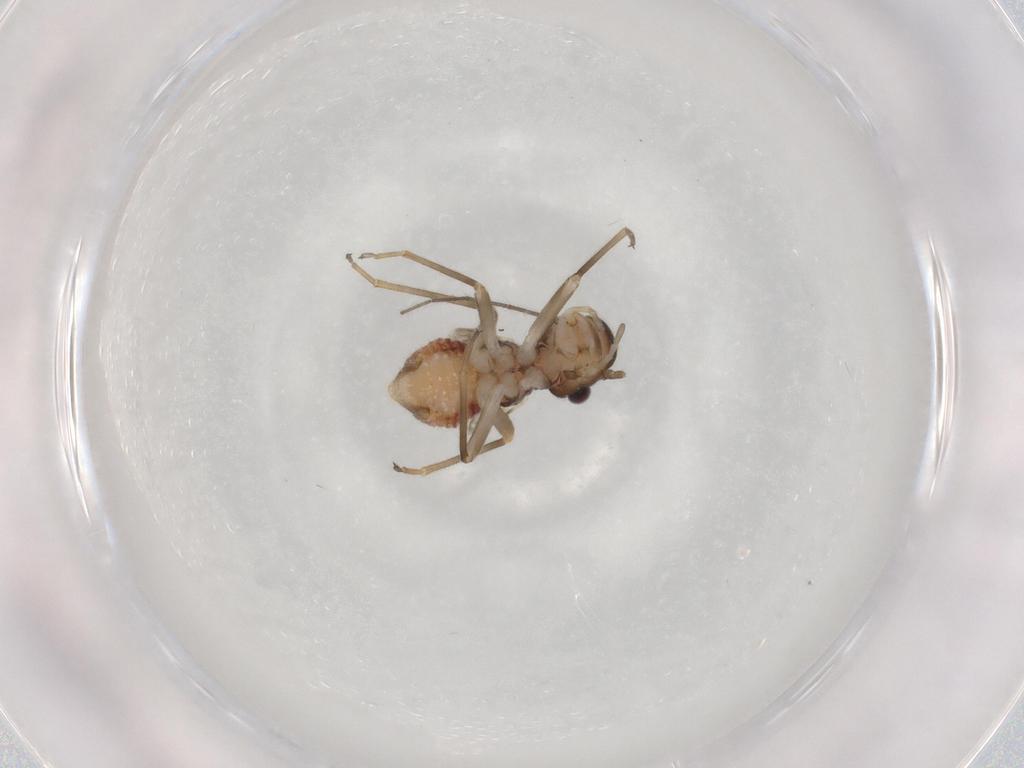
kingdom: Animalia
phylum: Arthropoda
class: Insecta
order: Psocodea
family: Caeciliusidae
